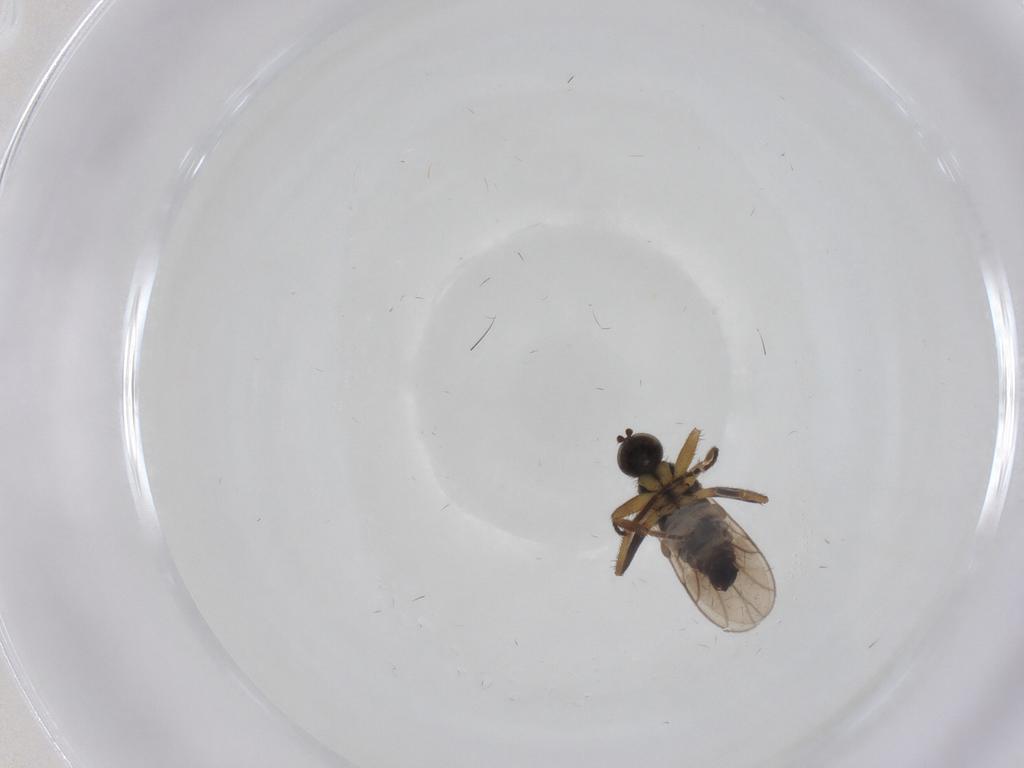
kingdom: Animalia
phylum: Arthropoda
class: Insecta
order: Diptera
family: Hybotidae
